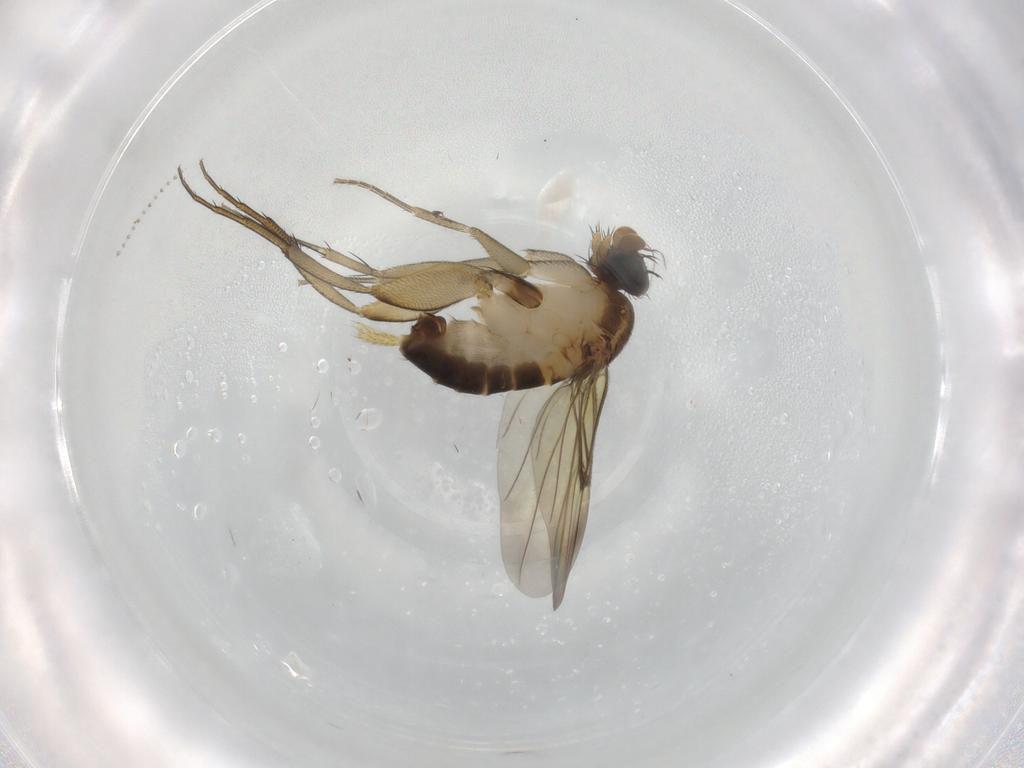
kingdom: Animalia
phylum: Arthropoda
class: Insecta
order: Diptera
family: Phoridae
